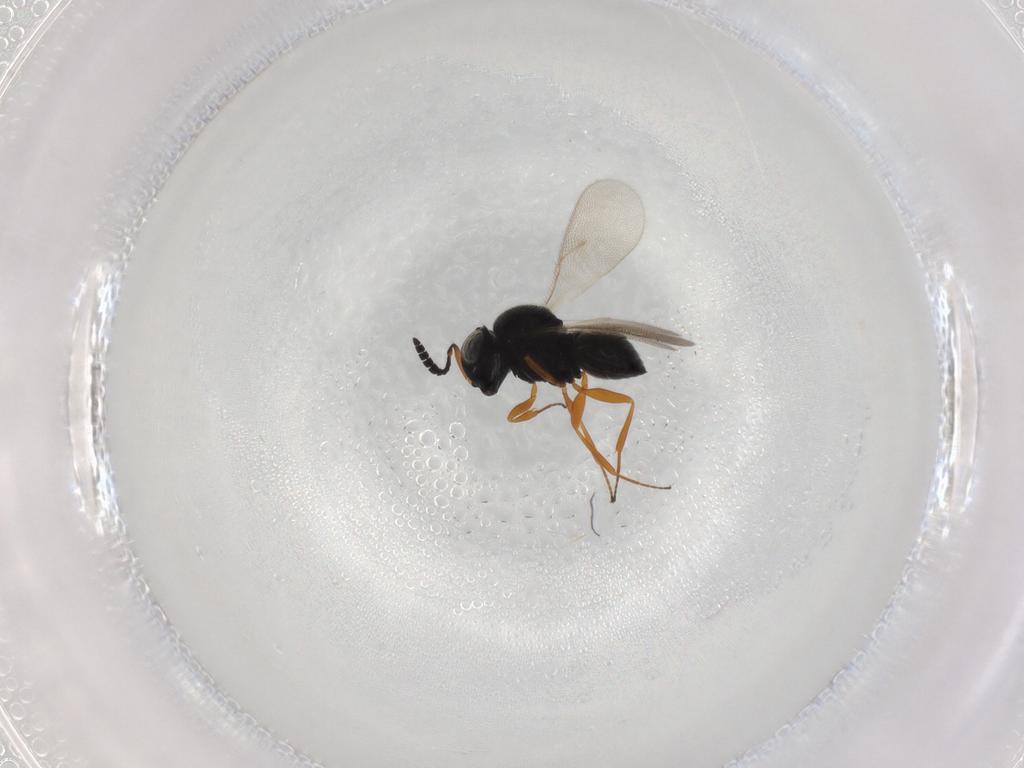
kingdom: Animalia
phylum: Arthropoda
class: Insecta
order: Hymenoptera
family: Scelionidae
